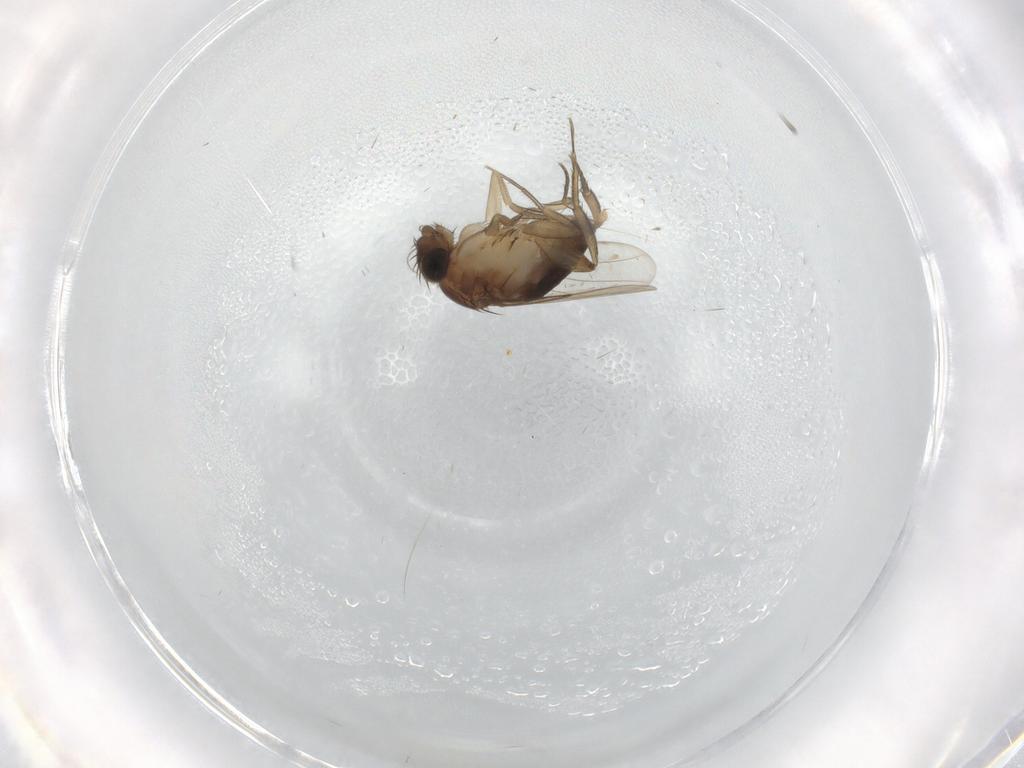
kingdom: Animalia
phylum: Arthropoda
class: Insecta
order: Diptera
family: Phoridae
